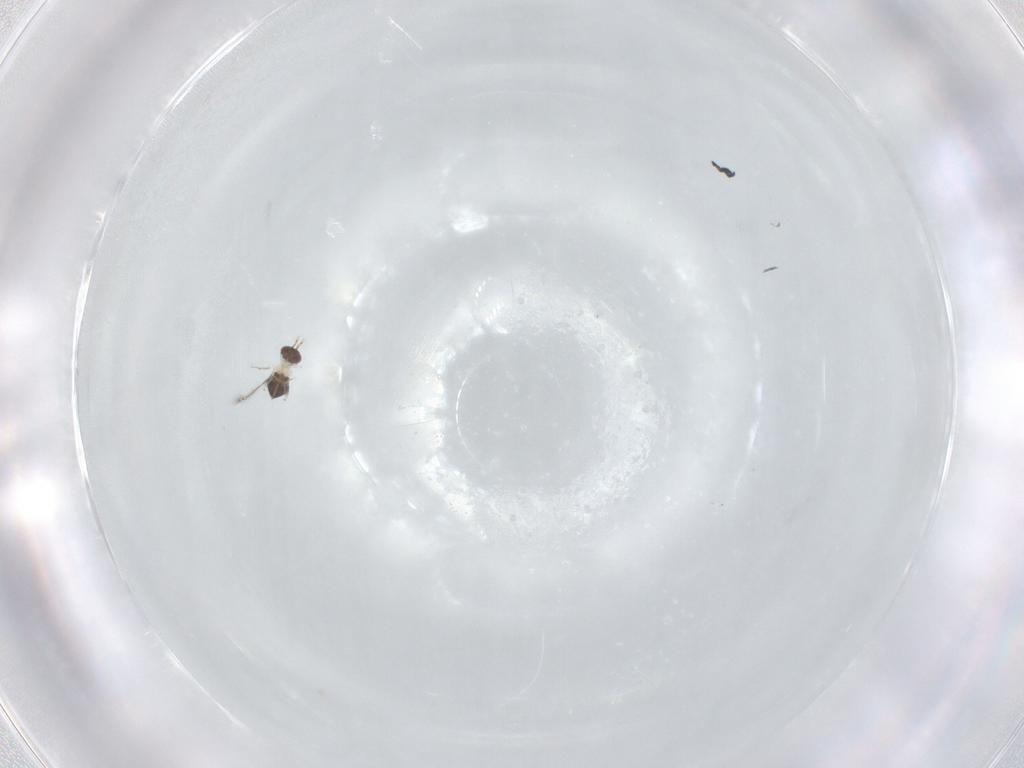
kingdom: Animalia
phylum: Arthropoda
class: Insecta
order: Hymenoptera
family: Mymaridae
